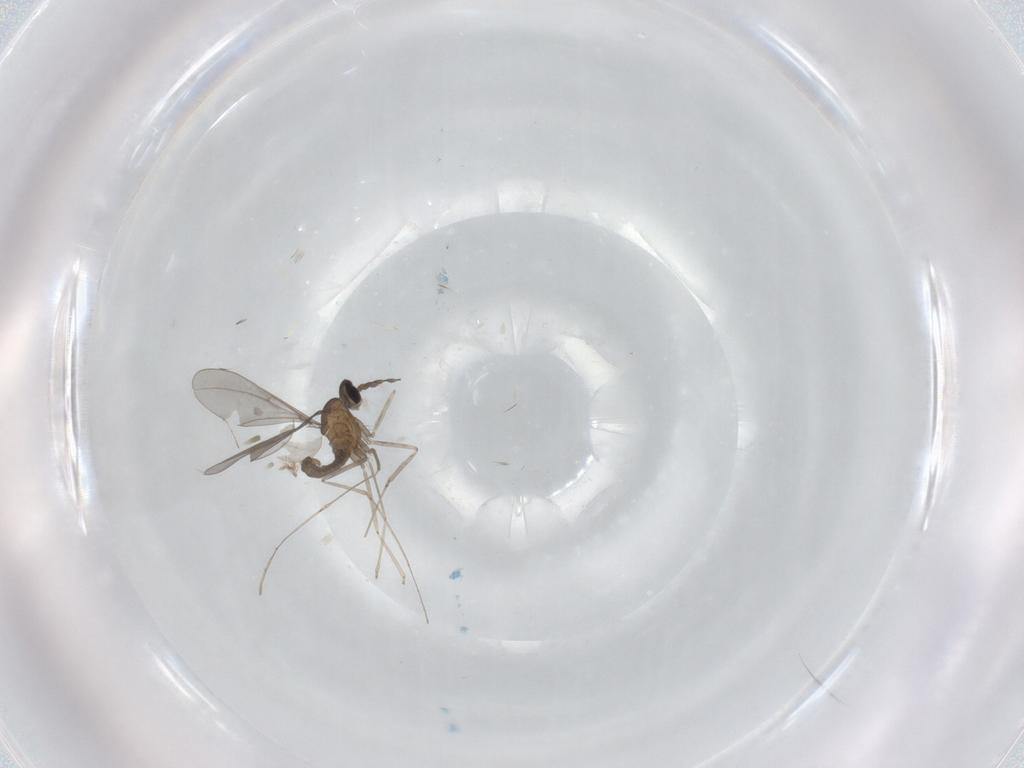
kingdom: Animalia
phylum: Arthropoda
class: Insecta
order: Diptera
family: Cecidomyiidae
